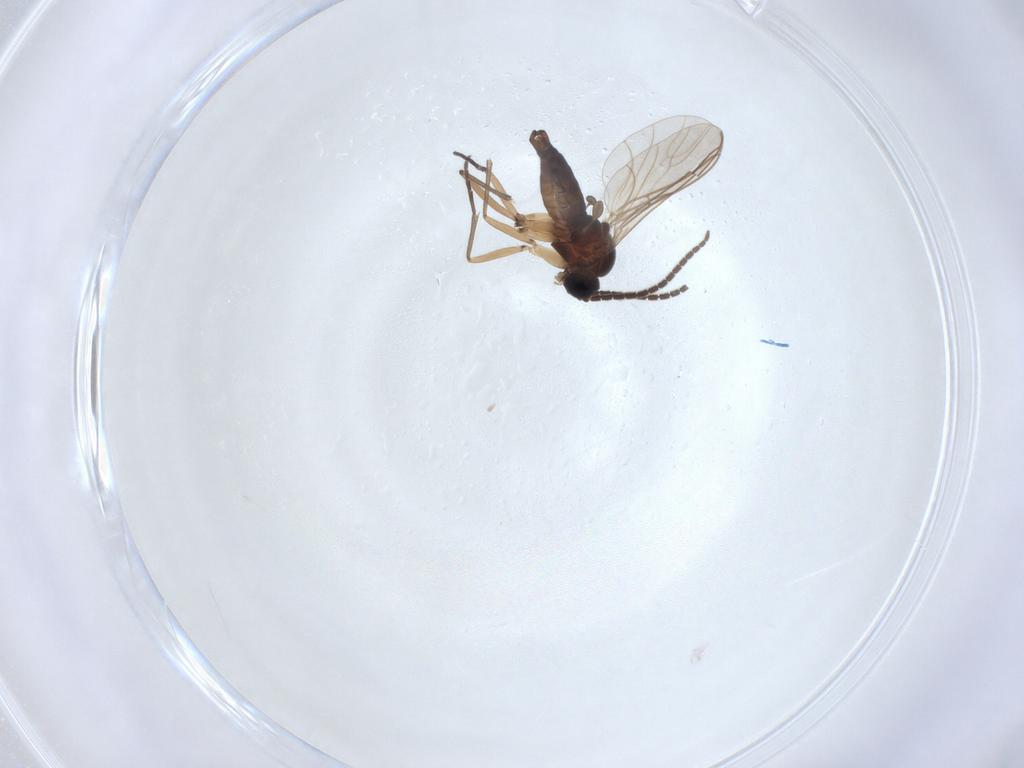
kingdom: Animalia
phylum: Arthropoda
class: Insecta
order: Diptera
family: Sciaridae
